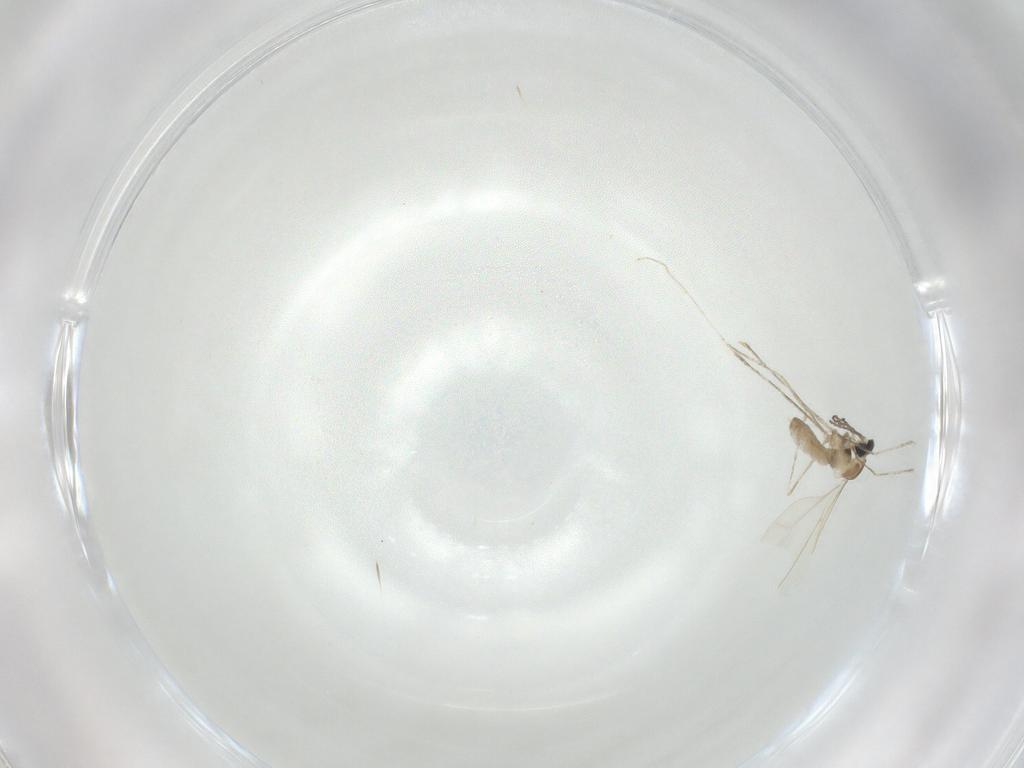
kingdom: Animalia
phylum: Arthropoda
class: Insecta
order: Diptera
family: Cecidomyiidae
